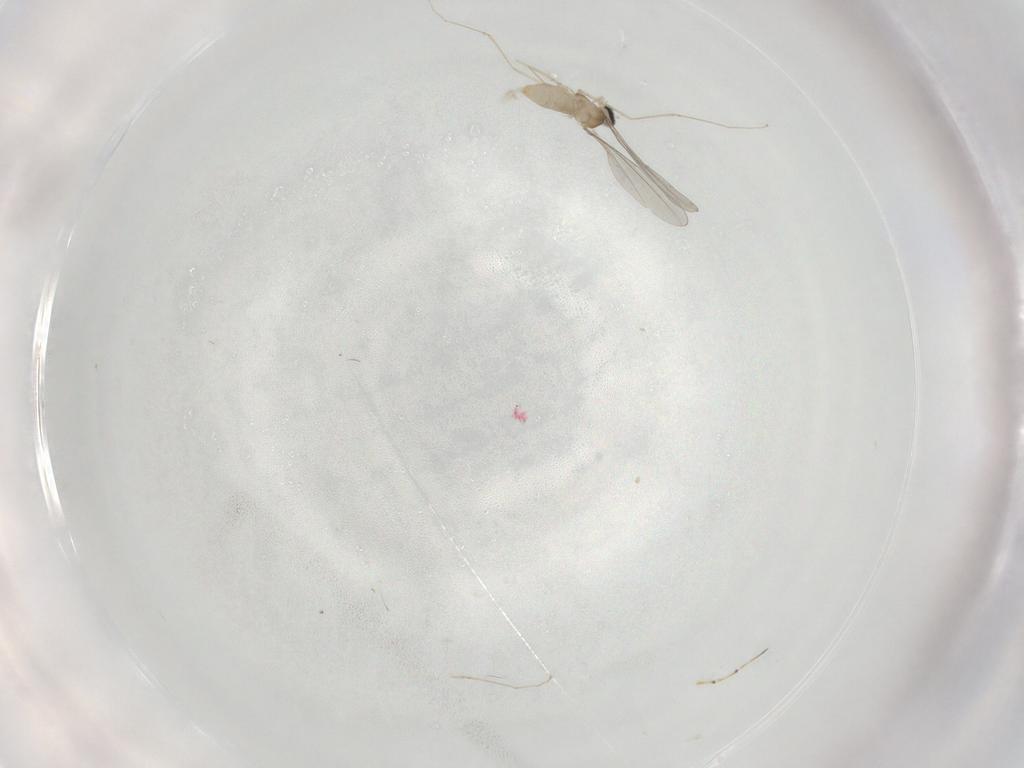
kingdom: Animalia
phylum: Arthropoda
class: Insecta
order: Diptera
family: Cecidomyiidae
